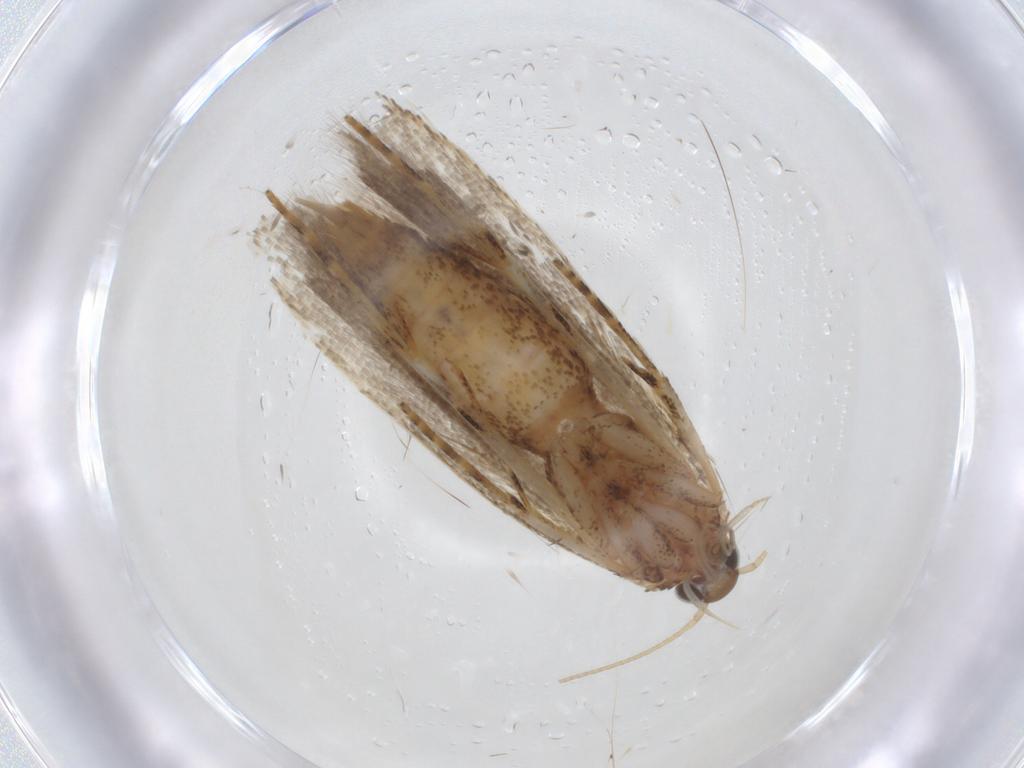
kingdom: Animalia
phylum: Arthropoda
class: Insecta
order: Lepidoptera
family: Crambidae
